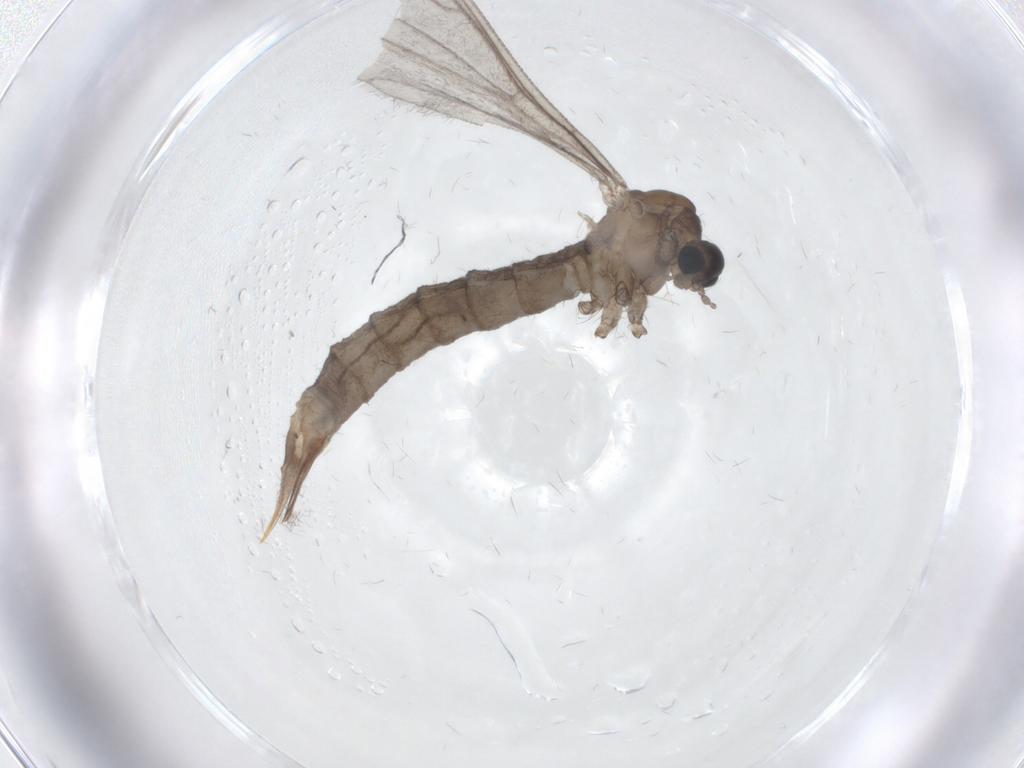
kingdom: Animalia
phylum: Arthropoda
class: Insecta
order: Diptera
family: Limoniidae
